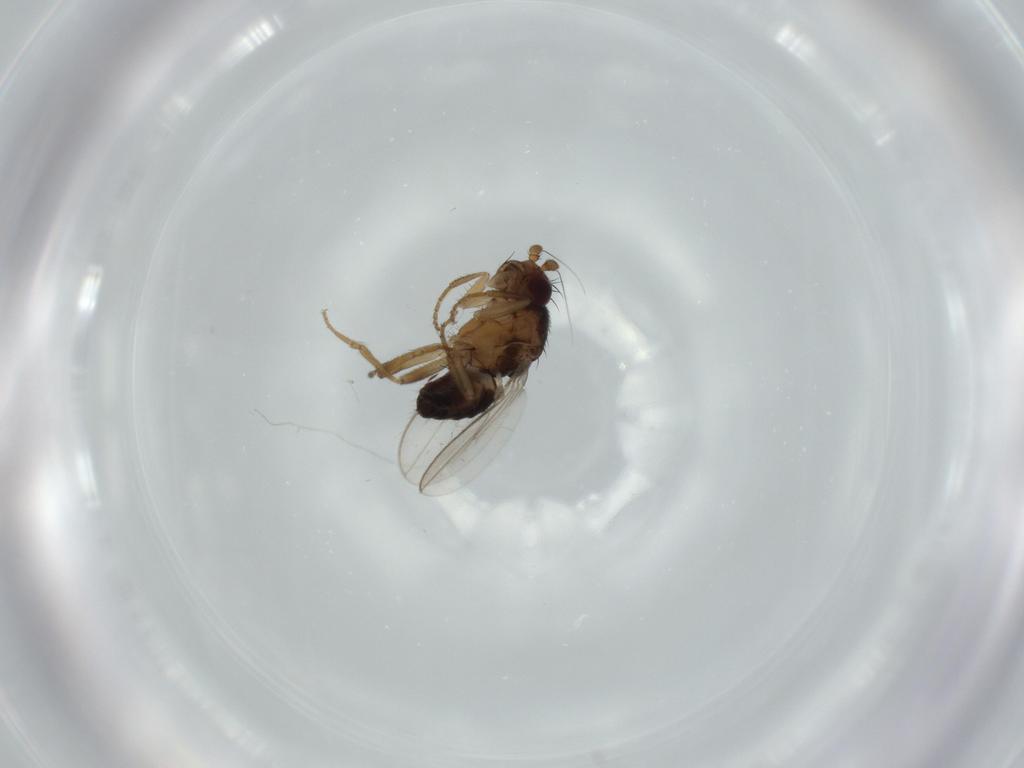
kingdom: Animalia
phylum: Arthropoda
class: Insecta
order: Diptera
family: Sphaeroceridae
